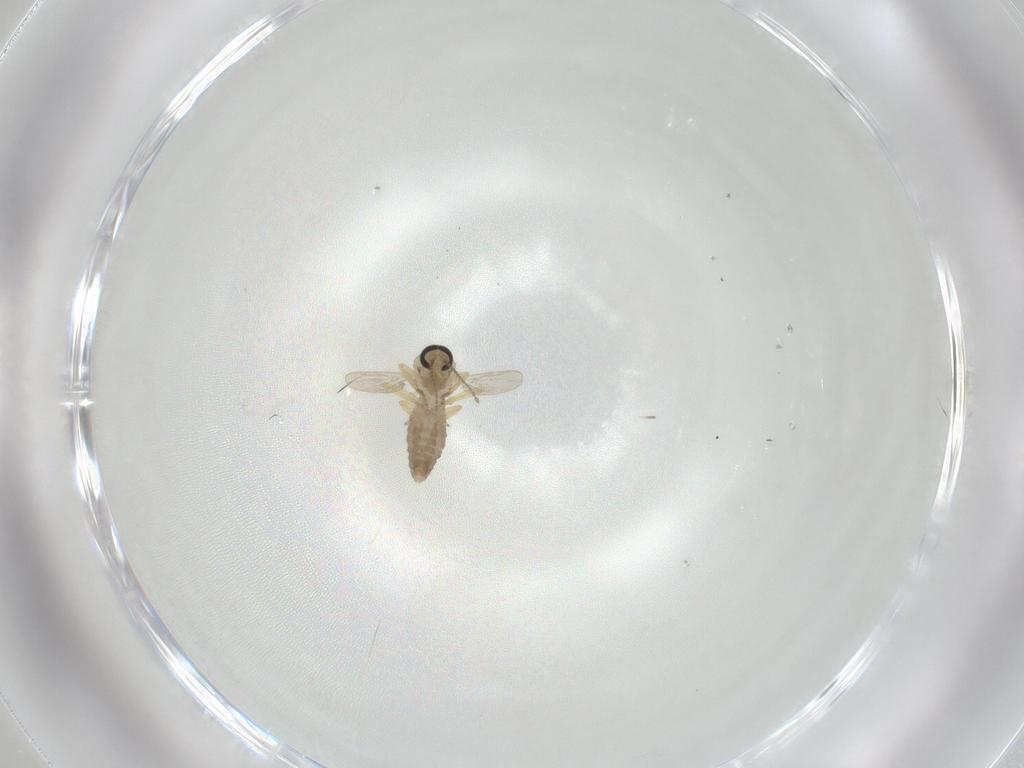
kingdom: Animalia
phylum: Arthropoda
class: Insecta
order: Diptera
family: Ceratopogonidae
